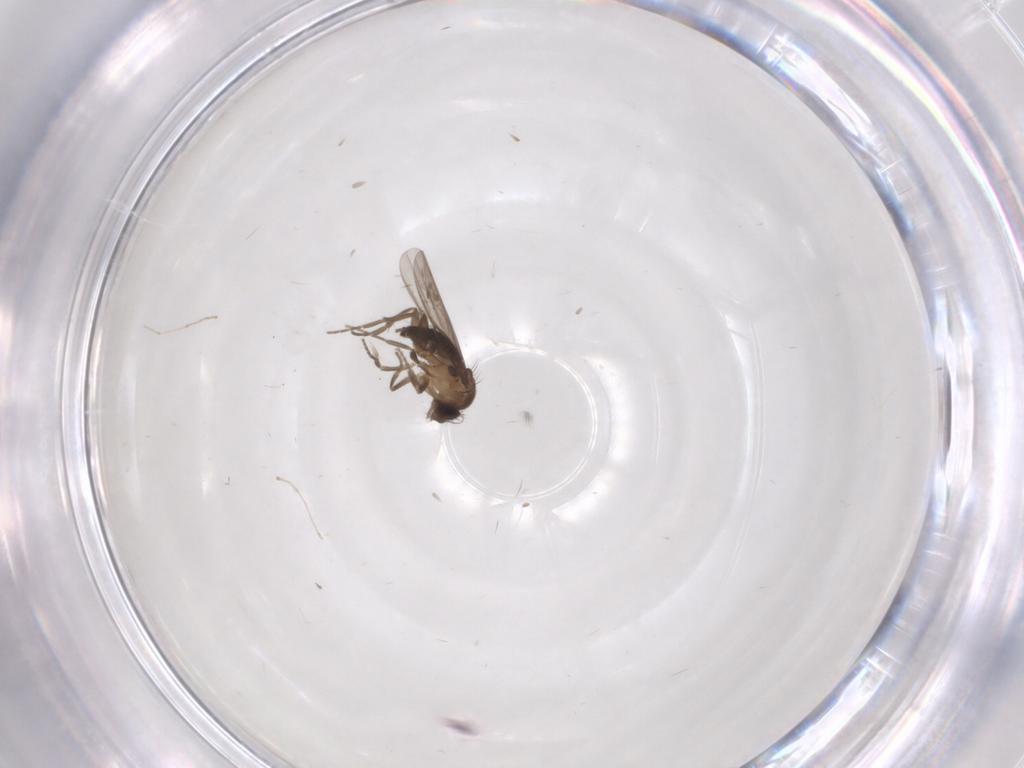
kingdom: Animalia
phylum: Arthropoda
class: Insecta
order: Diptera
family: Cecidomyiidae
